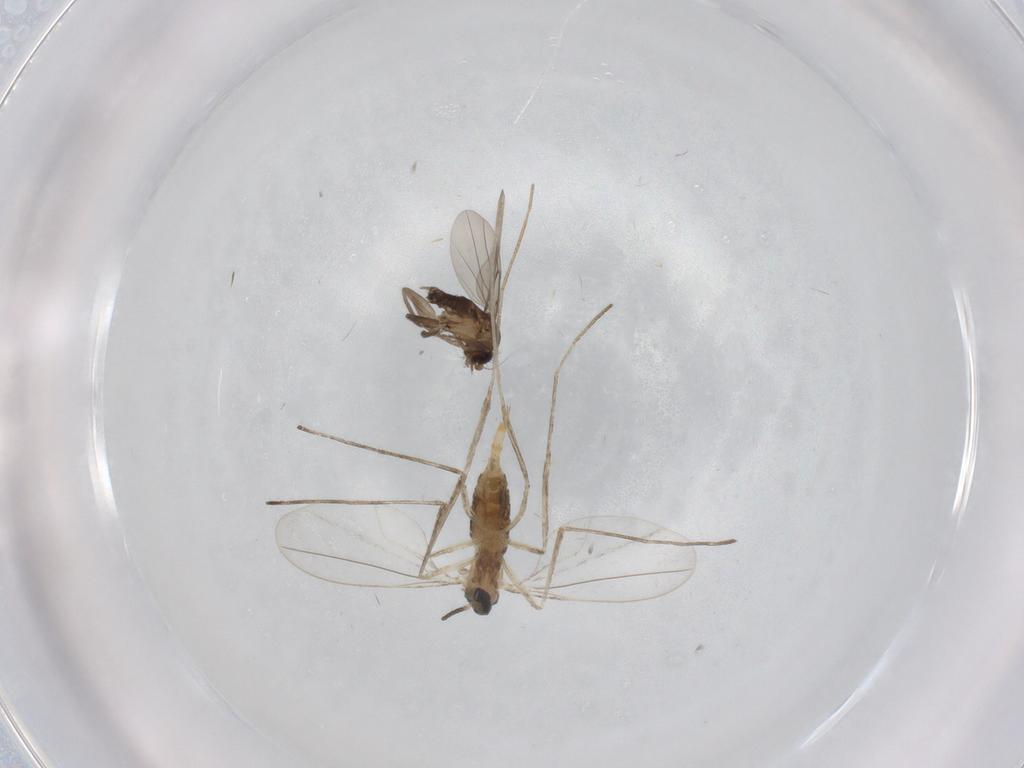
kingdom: Animalia
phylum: Arthropoda
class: Insecta
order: Diptera
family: Cecidomyiidae
